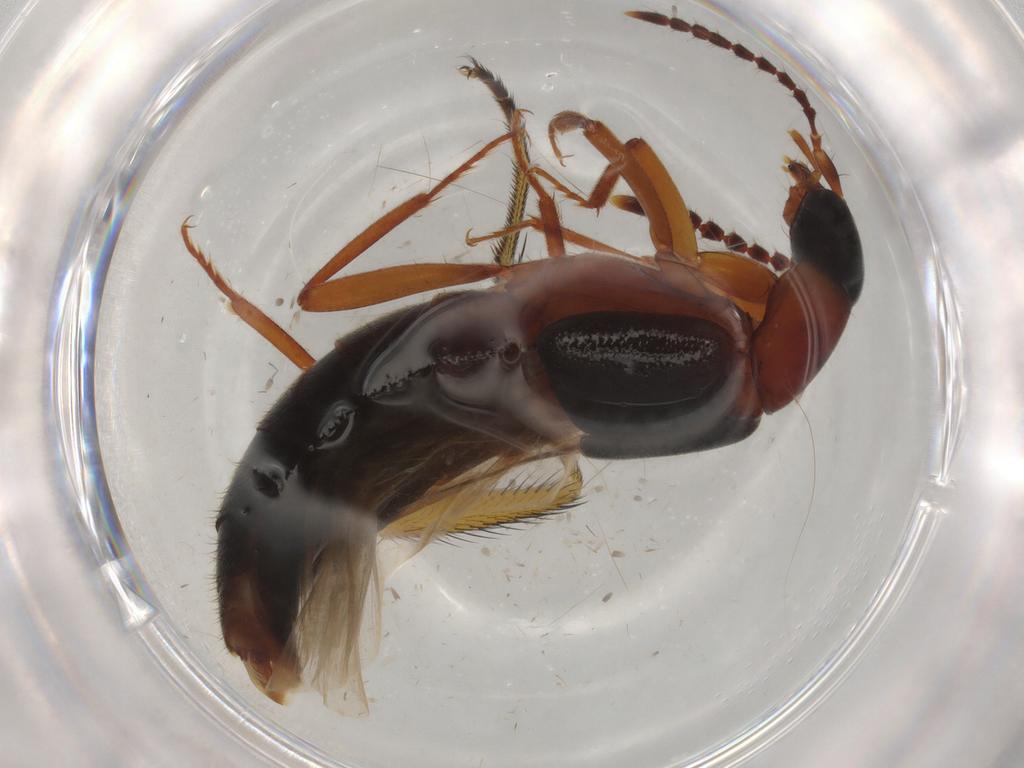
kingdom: Animalia
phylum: Arthropoda
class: Insecta
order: Coleoptera
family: Staphylinidae
